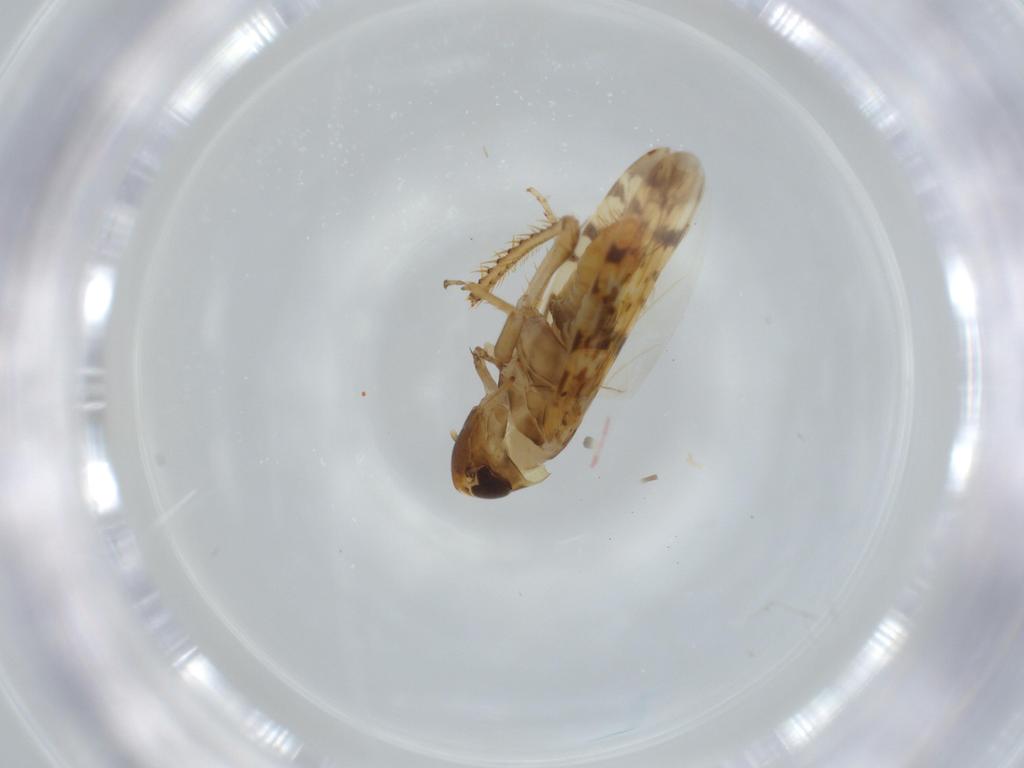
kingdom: Animalia
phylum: Arthropoda
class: Insecta
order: Hemiptera
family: Cicadellidae
